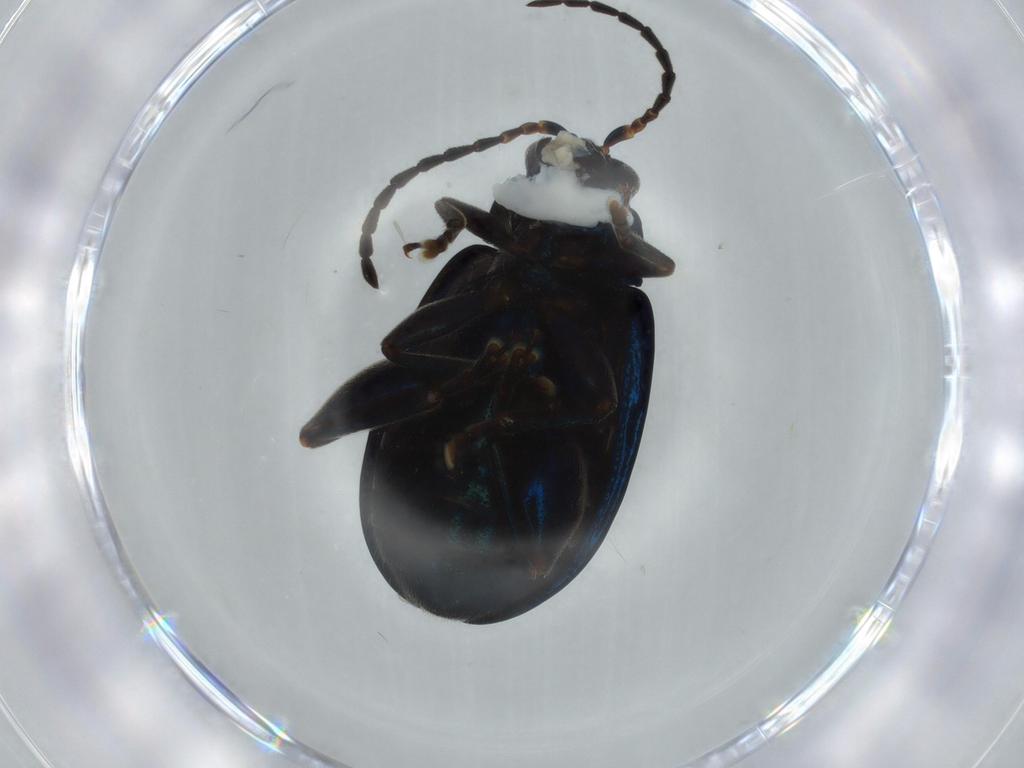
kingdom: Animalia
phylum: Arthropoda
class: Insecta
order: Coleoptera
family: Chrysomelidae
